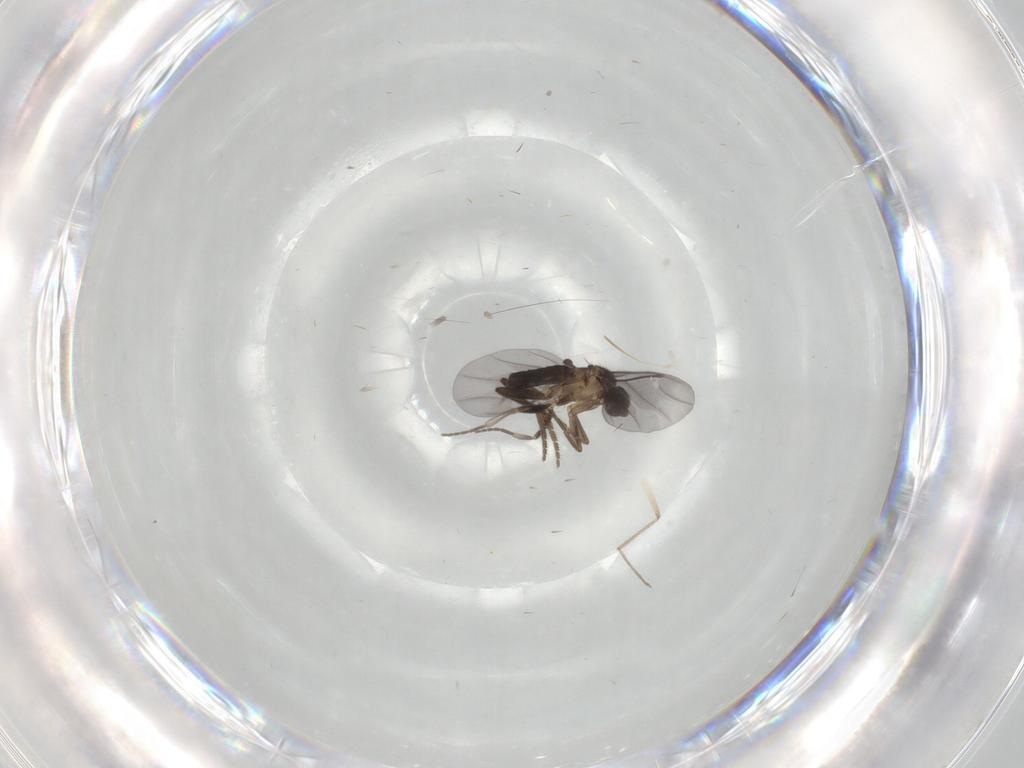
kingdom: Animalia
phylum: Arthropoda
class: Insecta
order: Diptera
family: Phoridae
